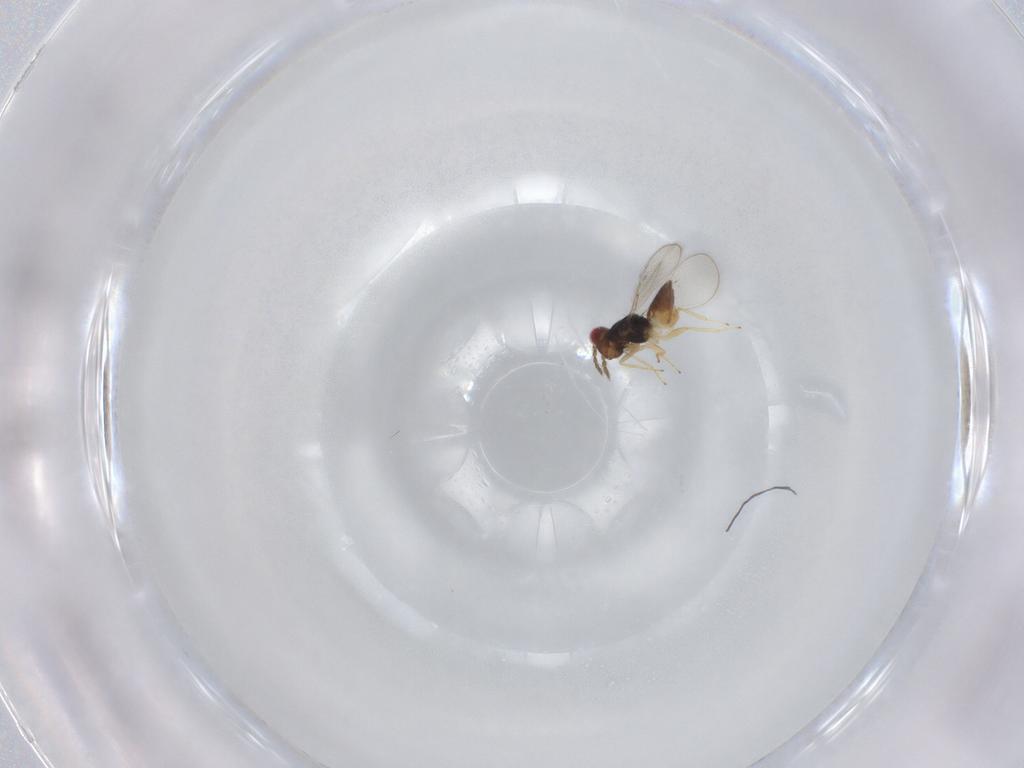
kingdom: Animalia
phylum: Arthropoda
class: Insecta
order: Hymenoptera
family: Eulophidae
